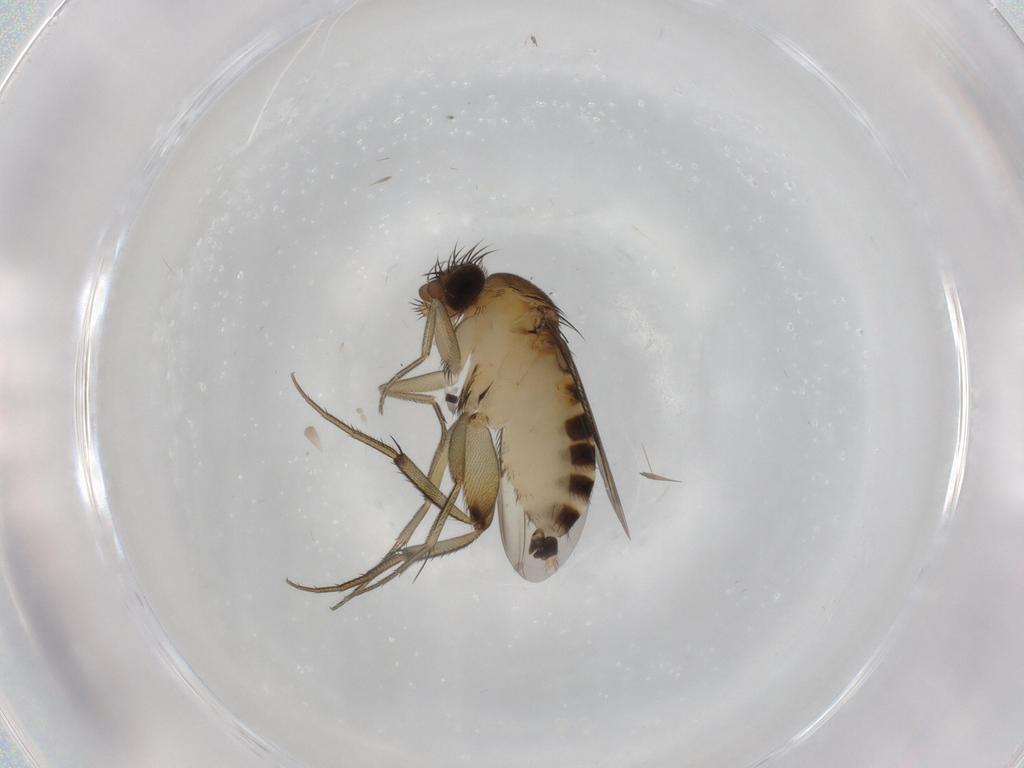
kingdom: Animalia
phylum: Arthropoda
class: Insecta
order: Diptera
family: Phoridae
